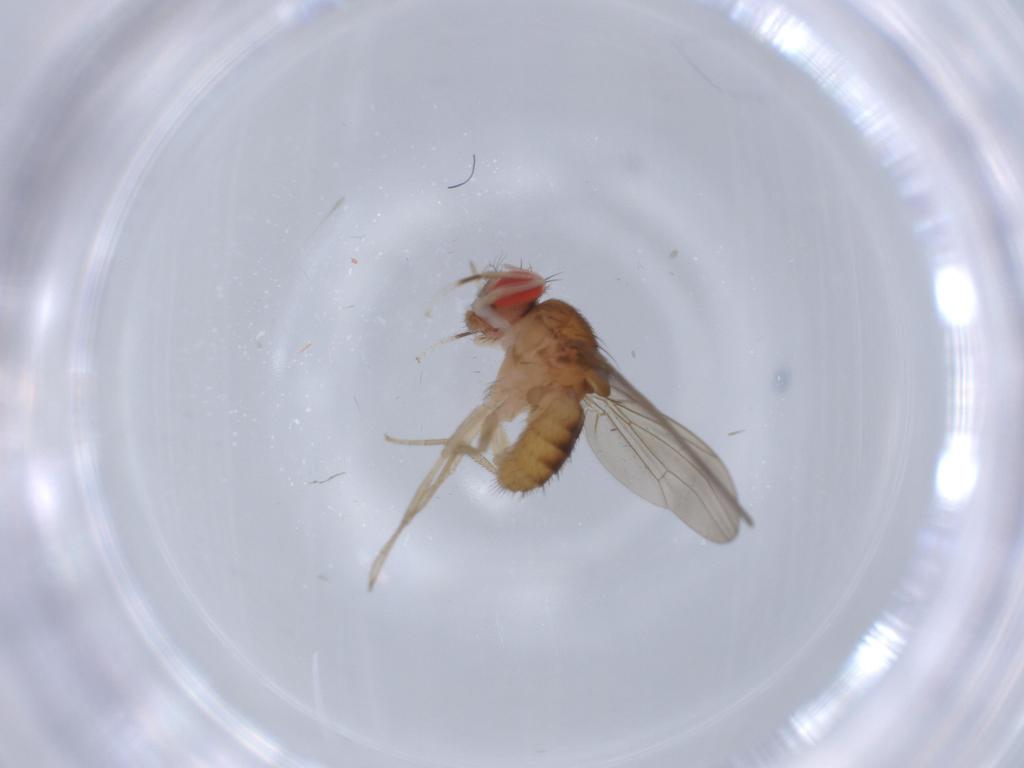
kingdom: Animalia
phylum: Arthropoda
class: Insecta
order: Diptera
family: Drosophilidae
